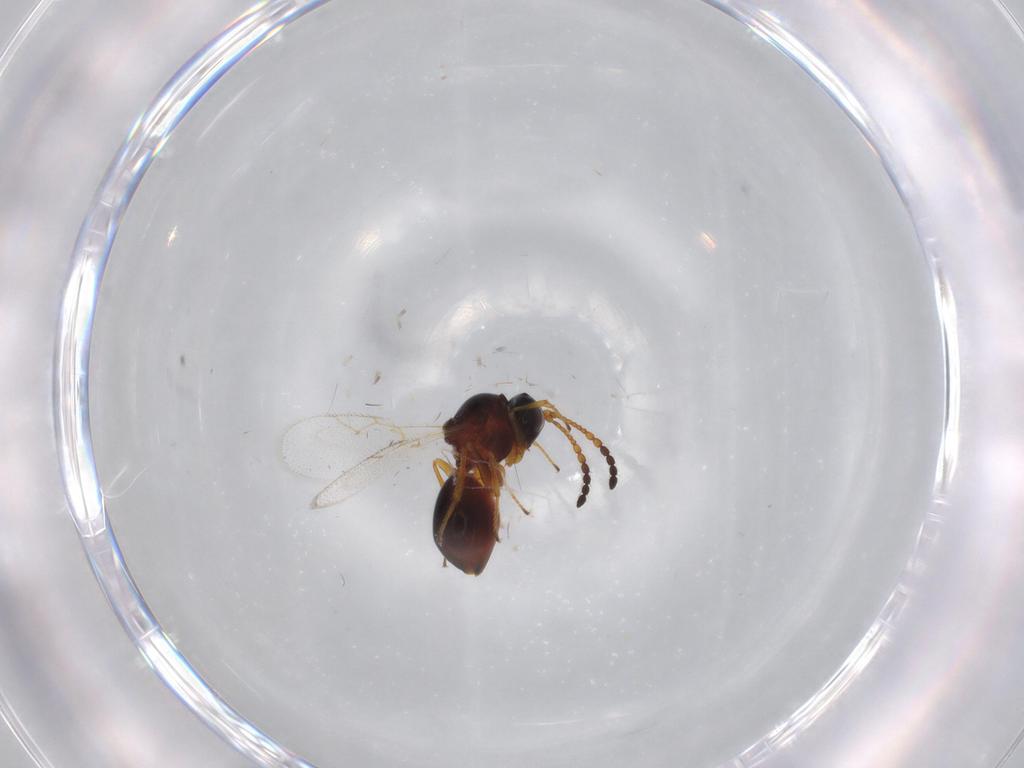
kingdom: Animalia
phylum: Arthropoda
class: Insecta
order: Hymenoptera
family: Figitidae
